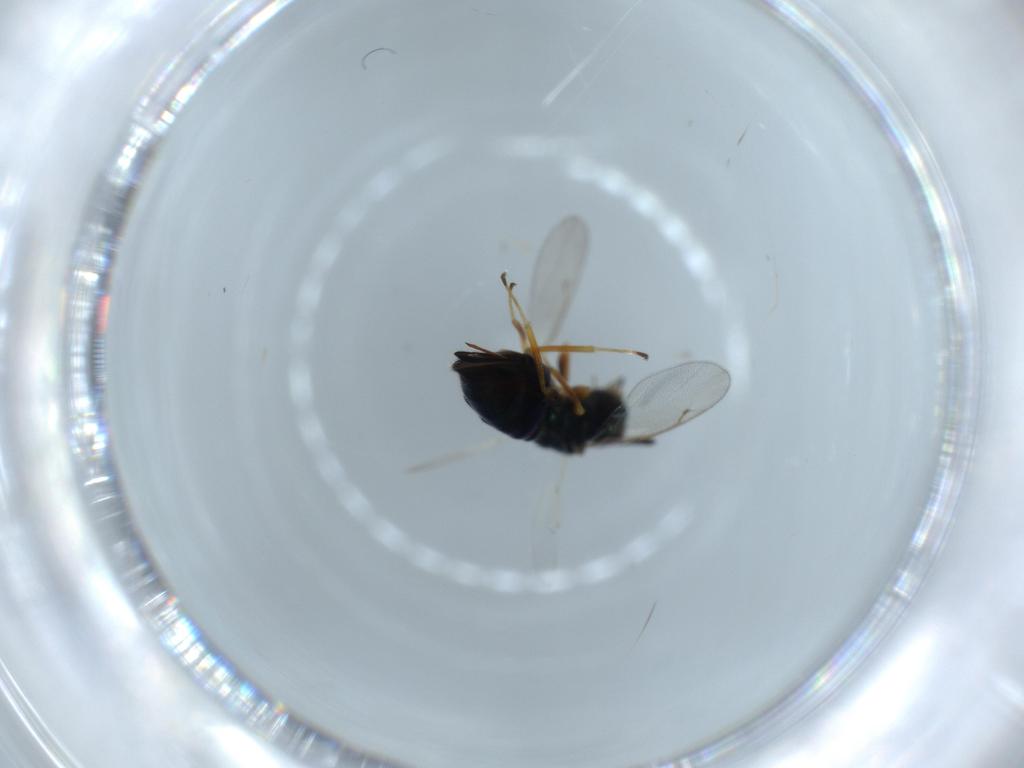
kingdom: Animalia
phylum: Arthropoda
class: Insecta
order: Hymenoptera
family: Pteromalidae
